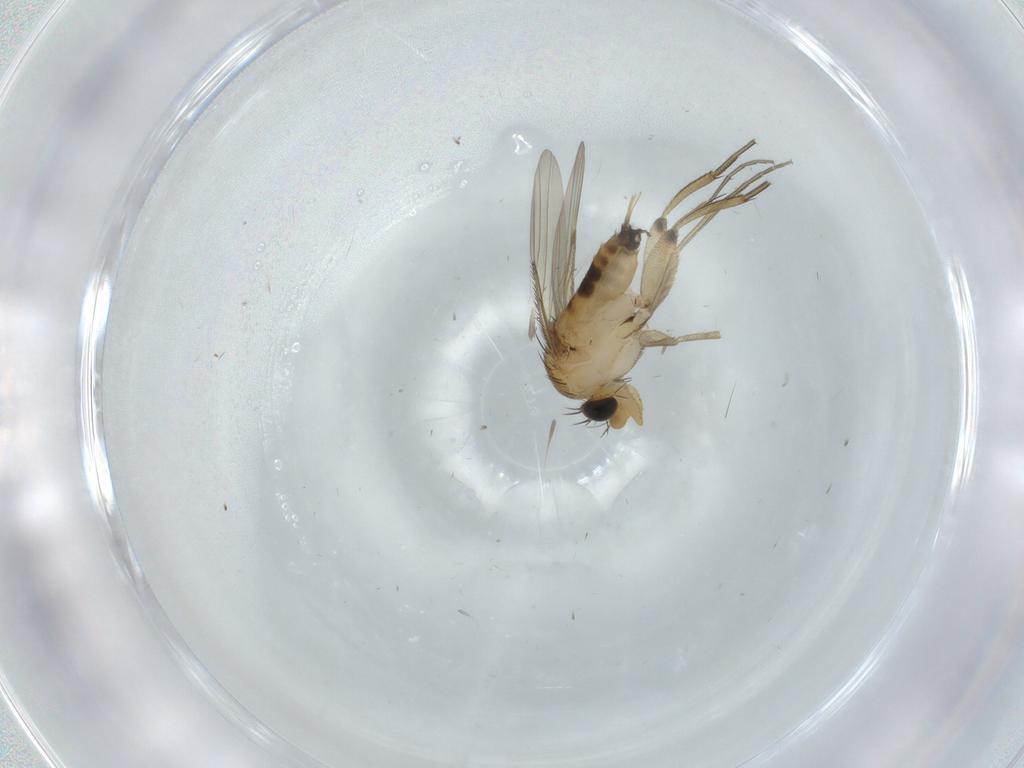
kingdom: Animalia
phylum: Arthropoda
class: Insecta
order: Diptera
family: Phoridae
